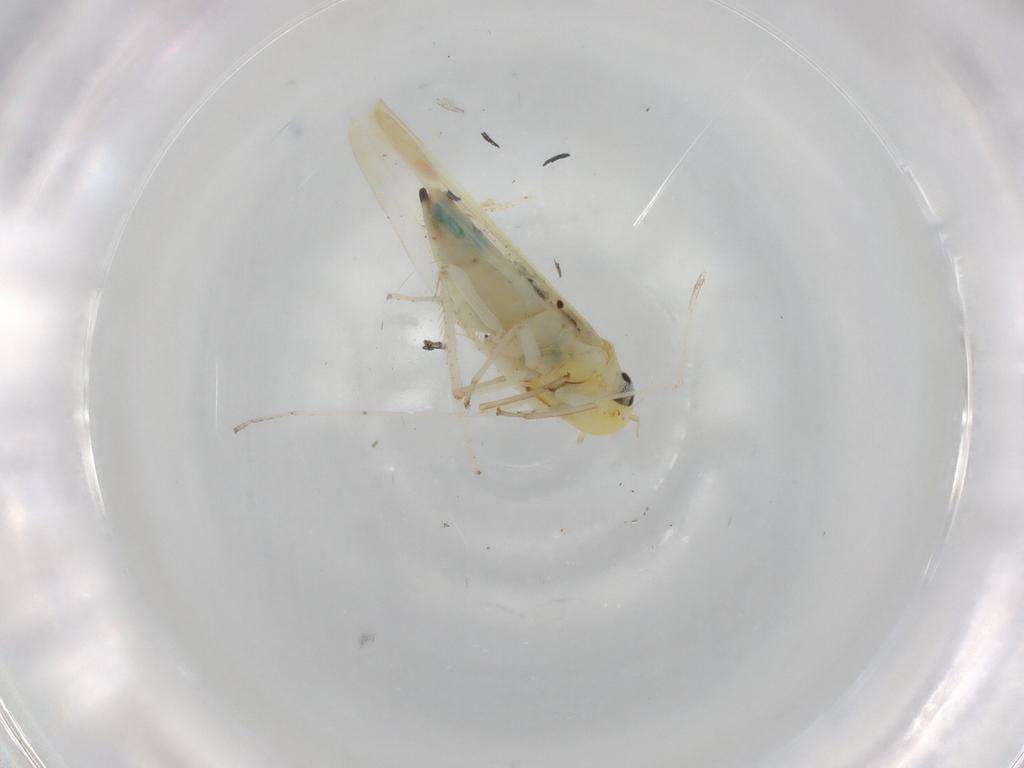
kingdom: Animalia
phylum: Arthropoda
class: Insecta
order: Hemiptera
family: Cicadellidae
